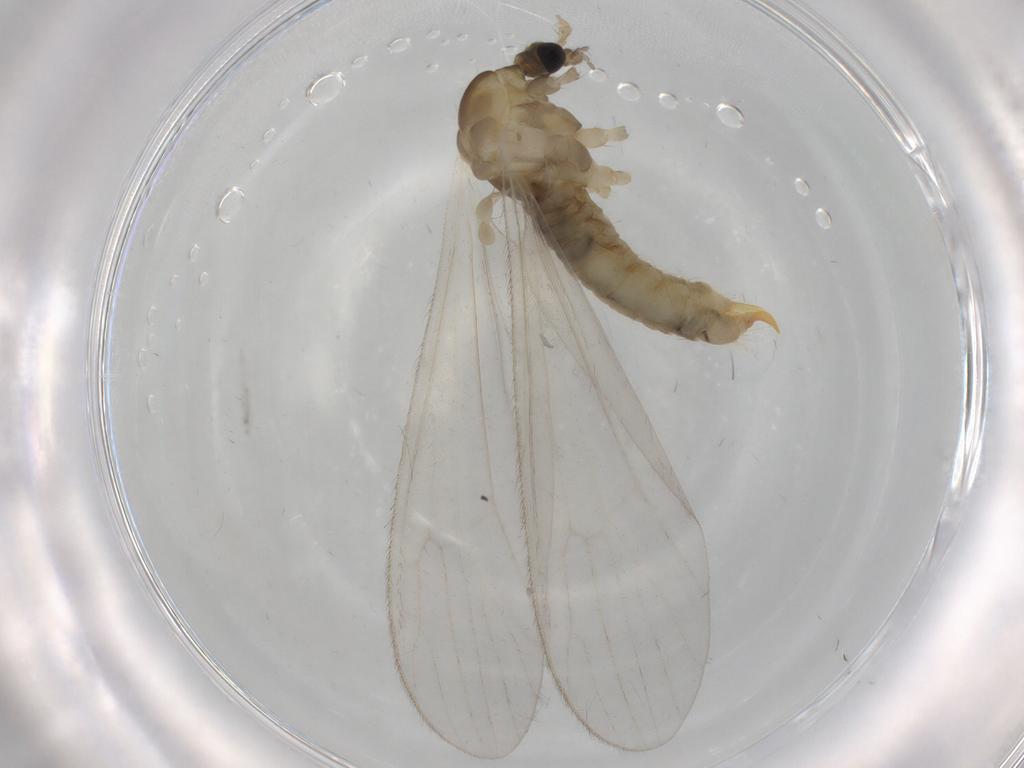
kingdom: Animalia
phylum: Arthropoda
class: Insecta
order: Diptera
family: Chironomidae
